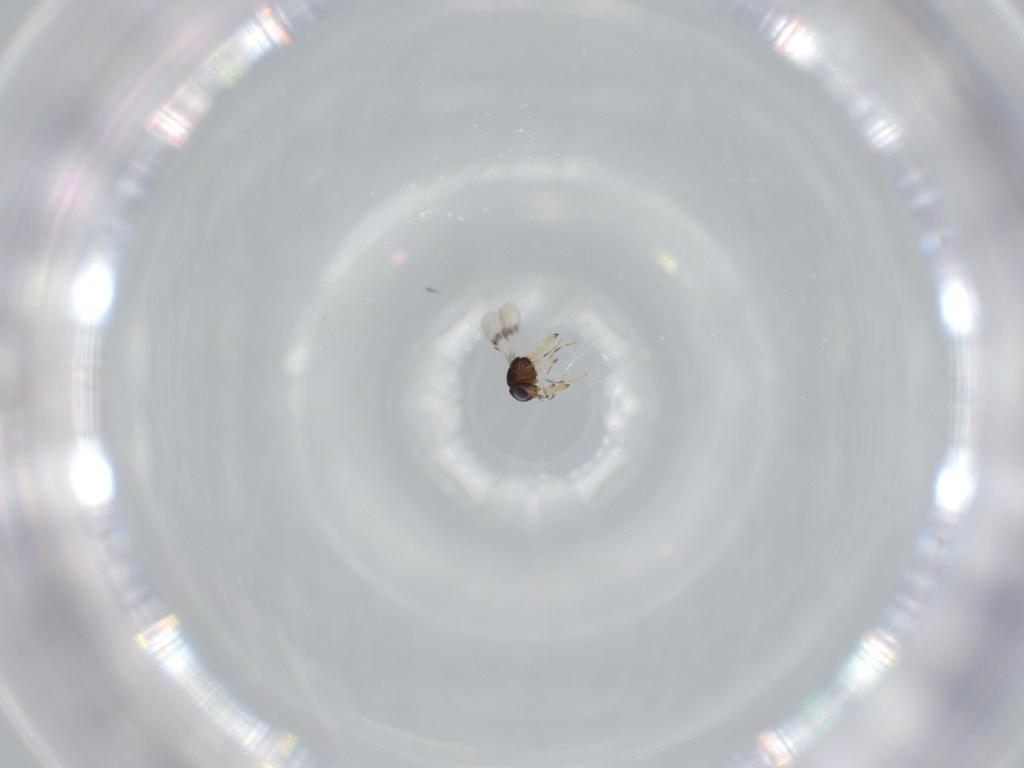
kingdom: Animalia
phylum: Arthropoda
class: Insecta
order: Hymenoptera
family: Scelionidae
